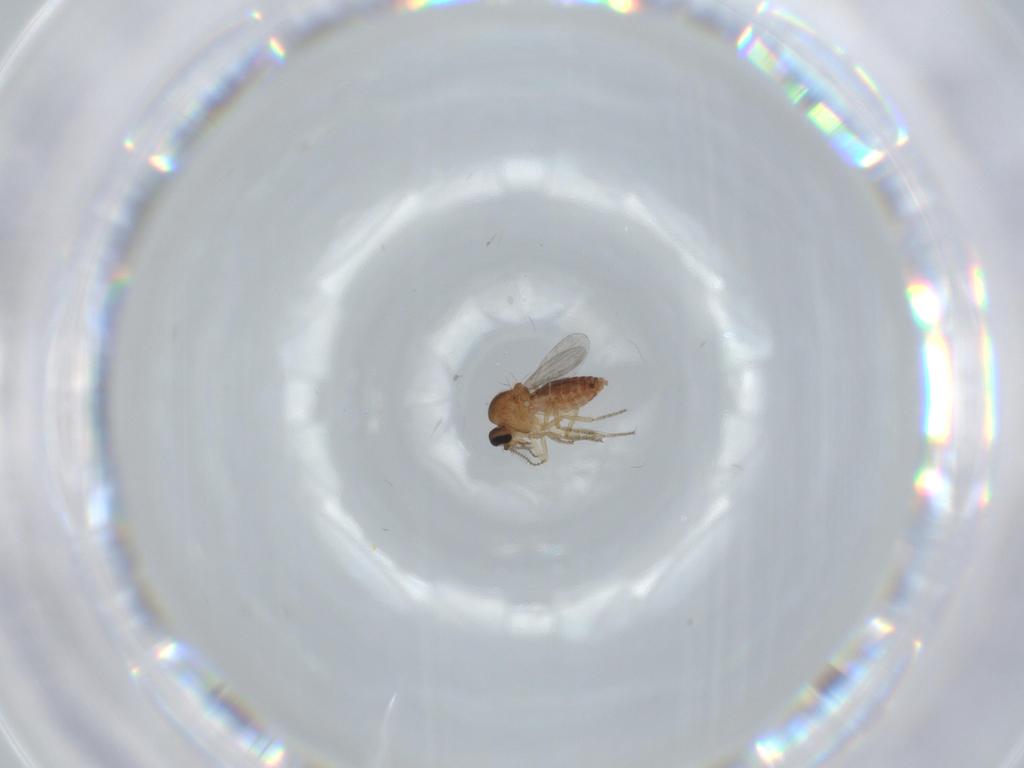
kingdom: Animalia
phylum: Arthropoda
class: Insecta
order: Diptera
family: Ceratopogonidae
